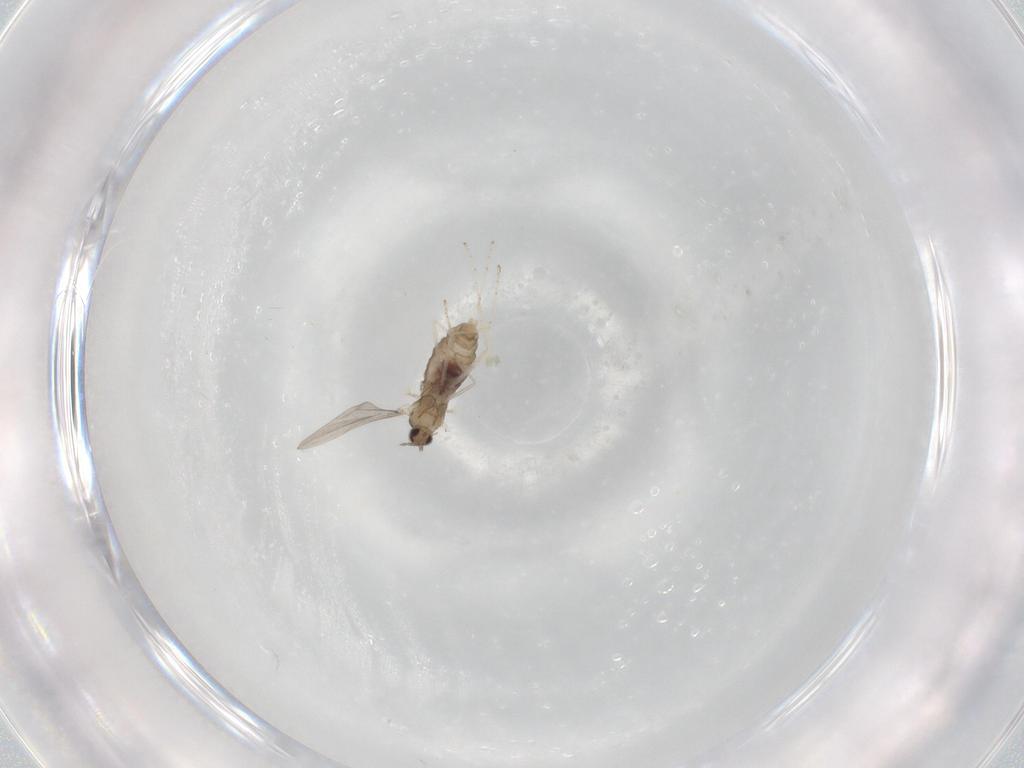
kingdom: Animalia
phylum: Arthropoda
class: Insecta
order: Diptera
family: Cecidomyiidae
